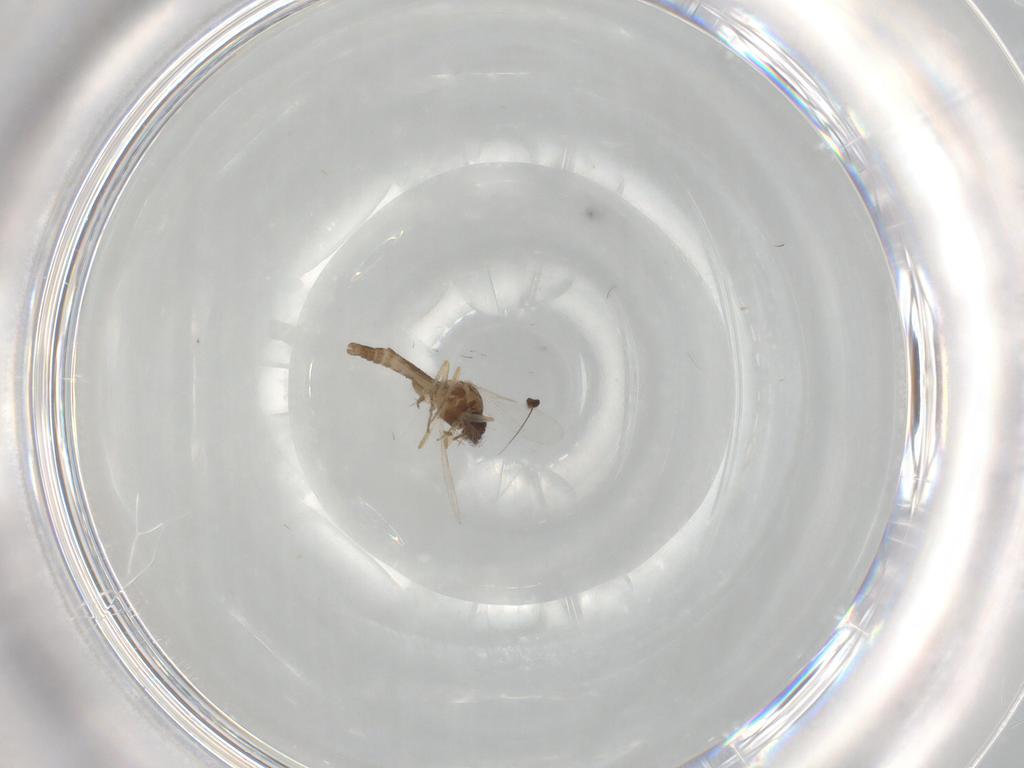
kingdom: Animalia
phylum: Arthropoda
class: Insecta
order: Diptera
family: Ceratopogonidae
